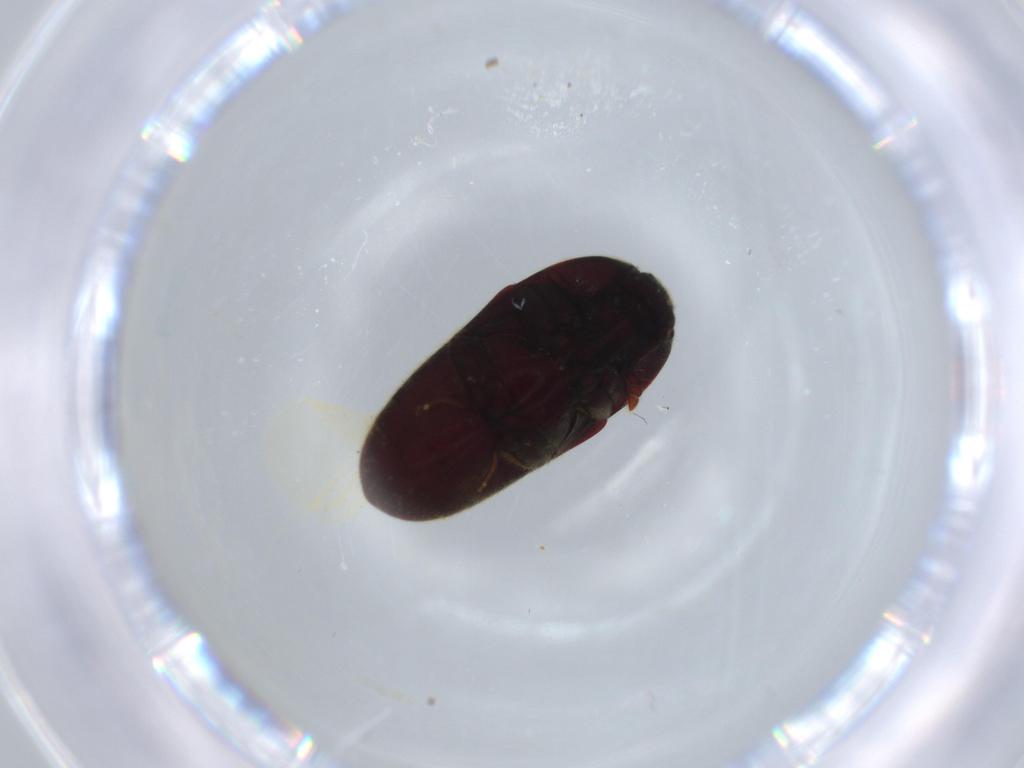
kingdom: Animalia
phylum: Arthropoda
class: Insecta
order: Coleoptera
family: Throscidae
